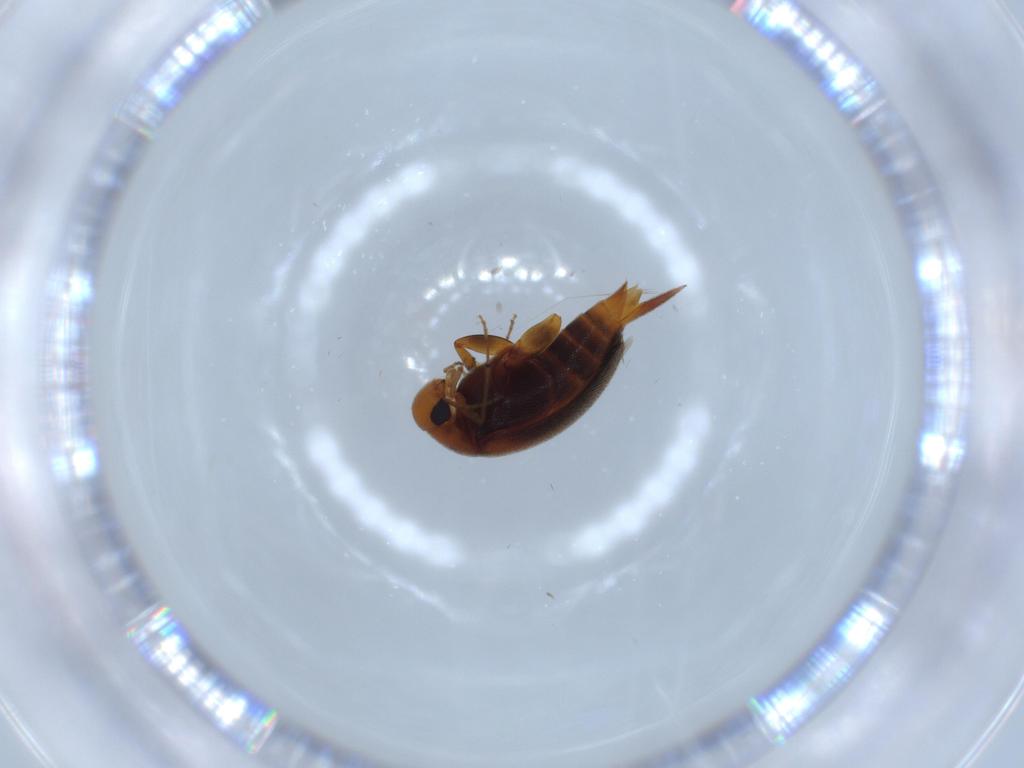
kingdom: Animalia
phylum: Arthropoda
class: Insecta
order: Coleoptera
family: Mordellidae
